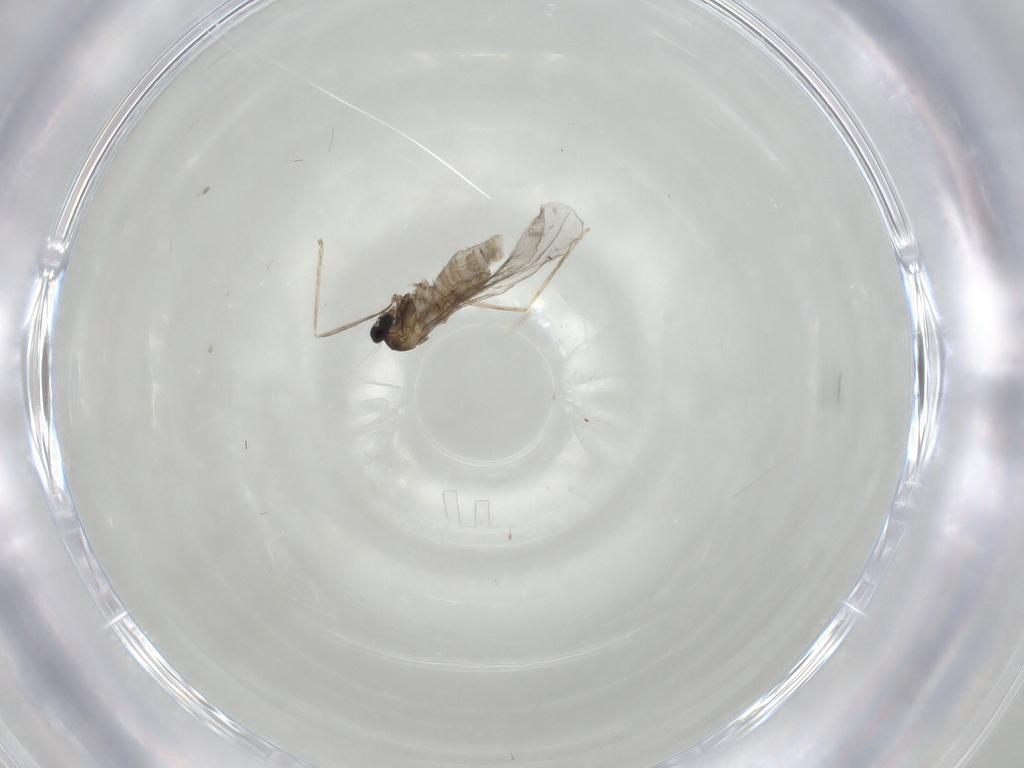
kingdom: Animalia
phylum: Arthropoda
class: Insecta
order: Diptera
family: Cecidomyiidae
